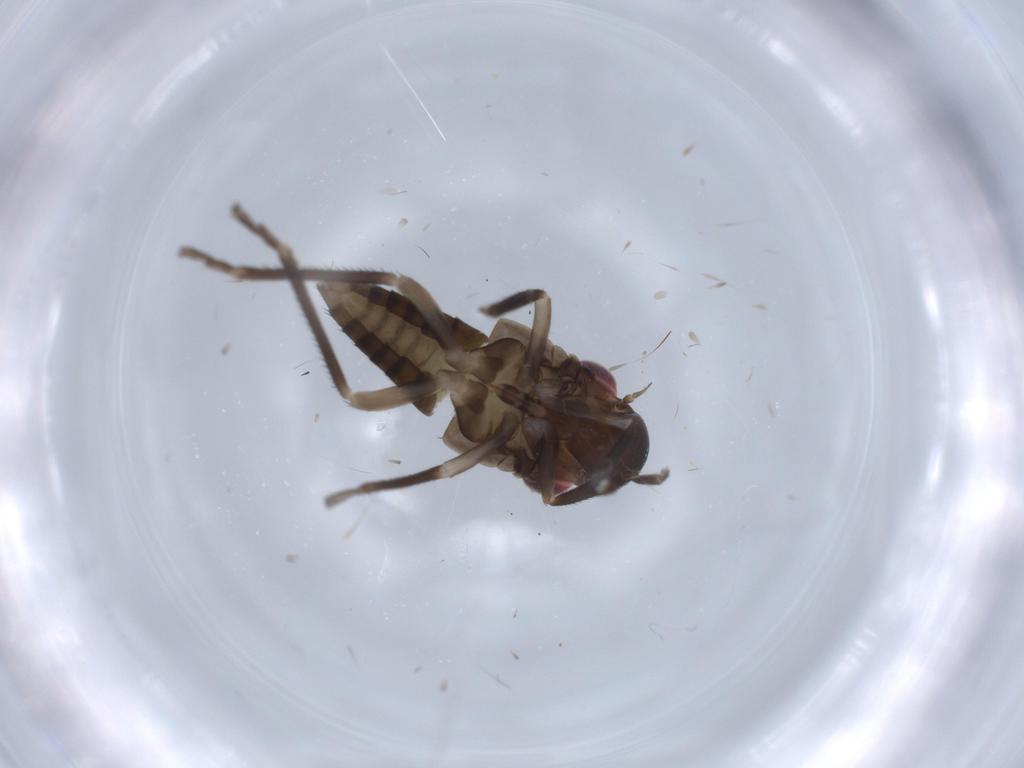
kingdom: Animalia
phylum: Arthropoda
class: Insecta
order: Hemiptera
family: Cicadellidae
